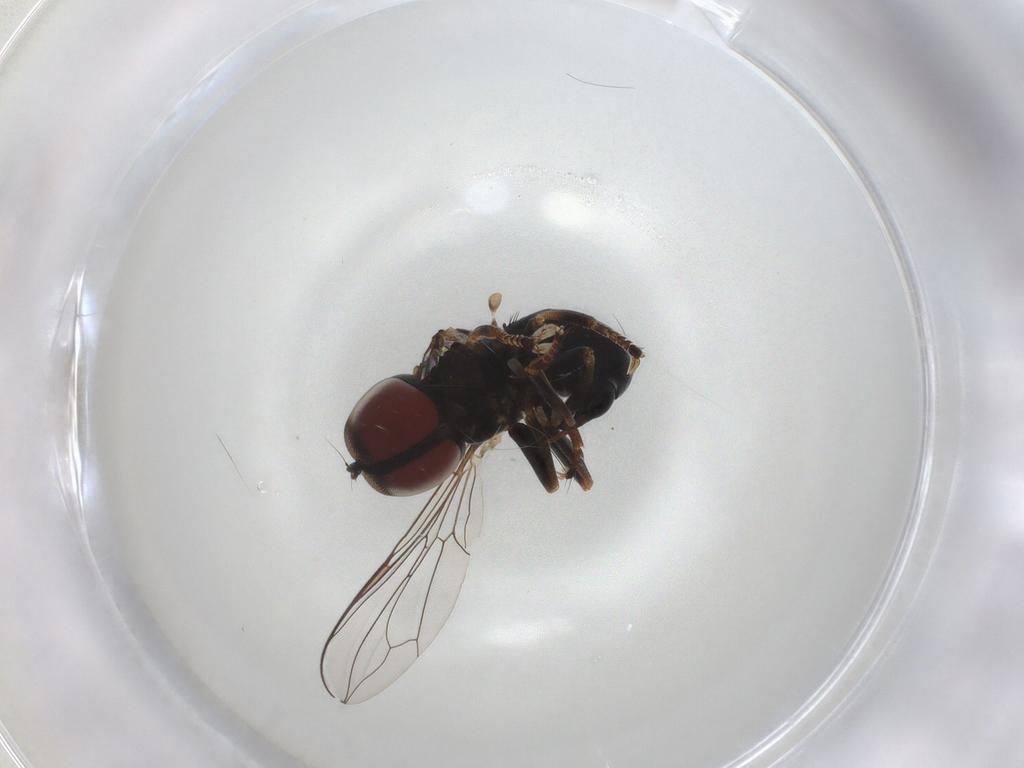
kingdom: Animalia
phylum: Arthropoda
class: Insecta
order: Diptera
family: Pipunculidae
